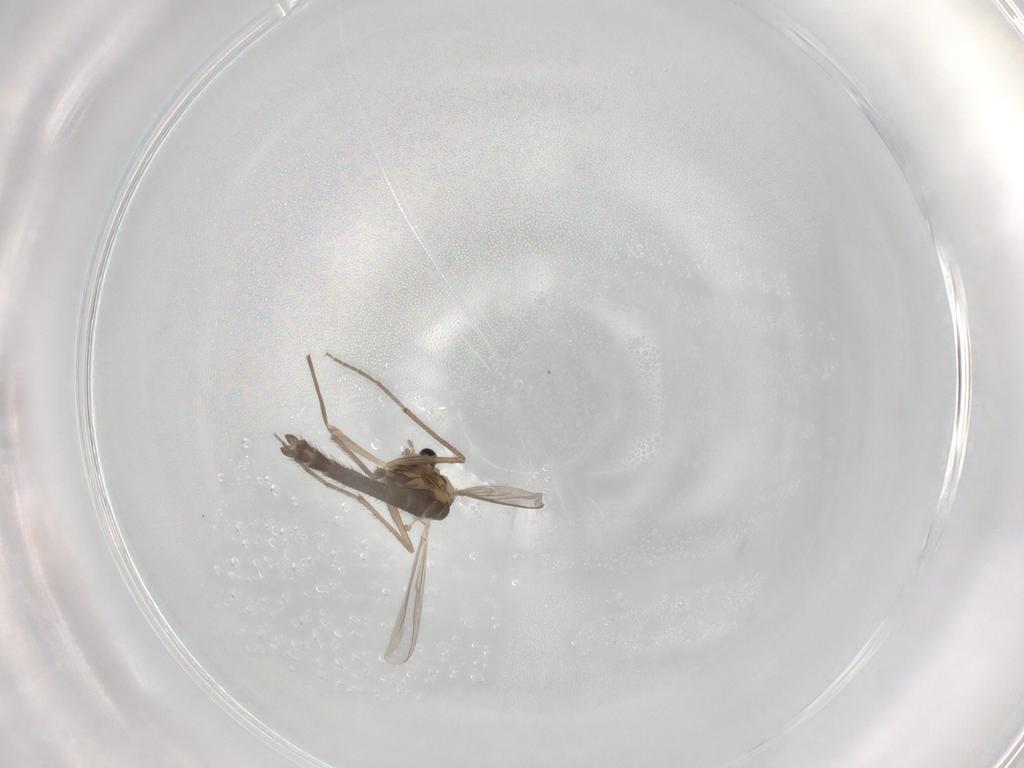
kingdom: Animalia
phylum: Arthropoda
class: Insecta
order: Diptera
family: Chironomidae
